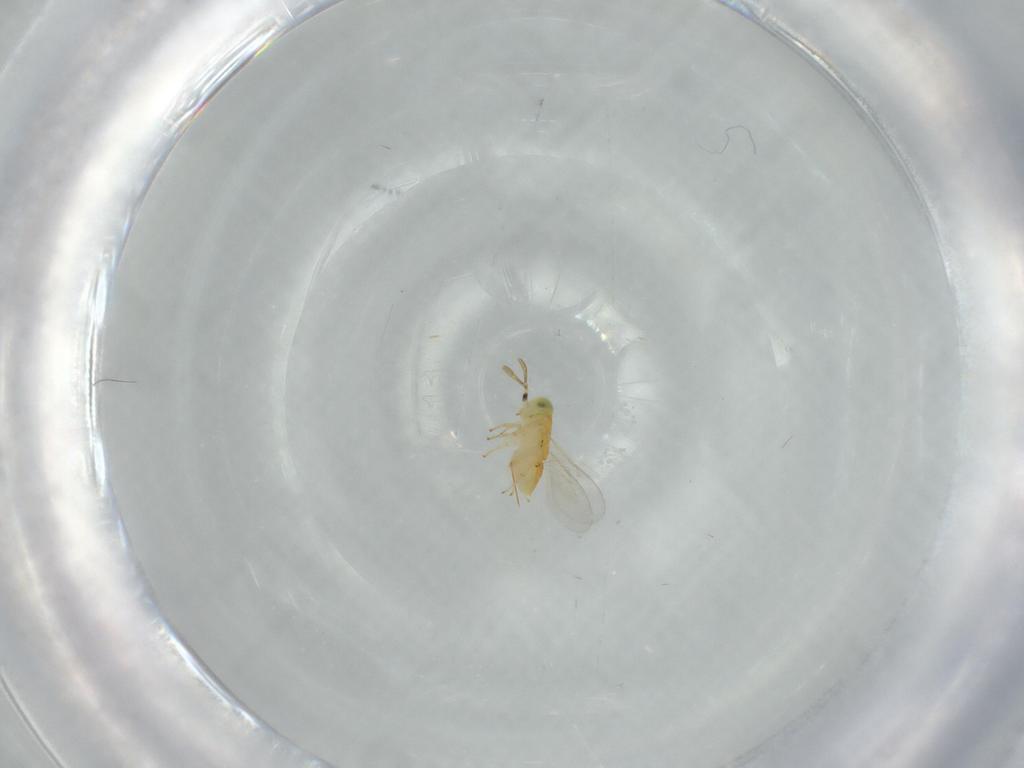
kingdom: Animalia
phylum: Arthropoda
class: Insecta
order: Hymenoptera
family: Encyrtidae
